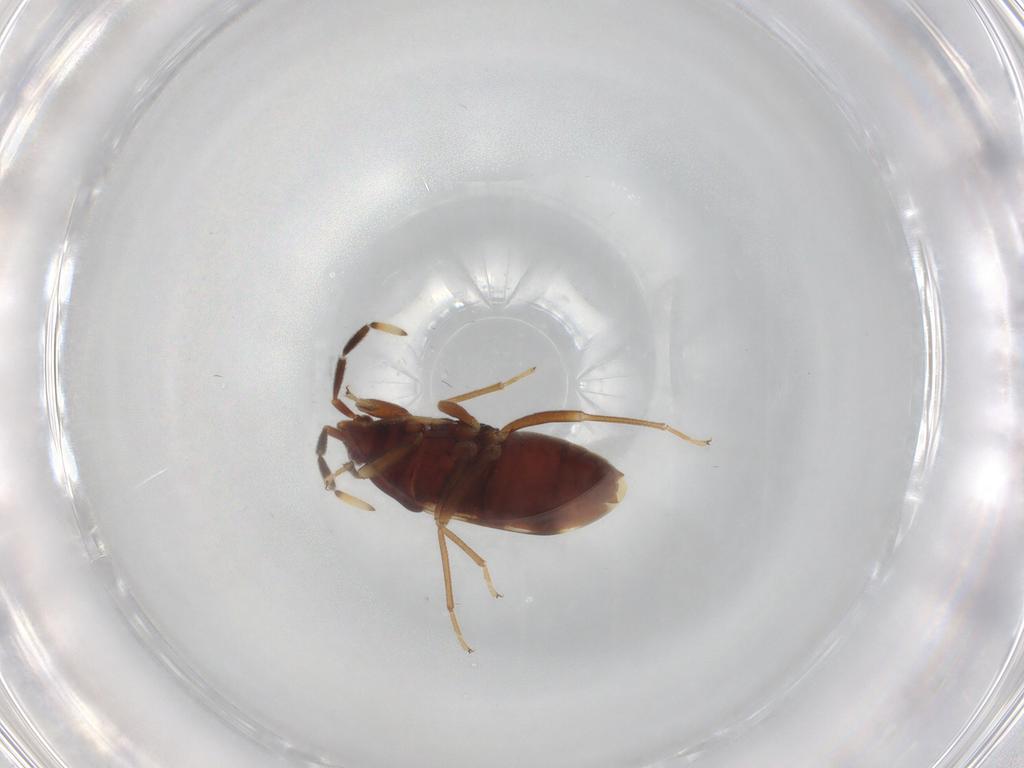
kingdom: Animalia
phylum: Arthropoda
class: Insecta
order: Hemiptera
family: Rhyparochromidae
